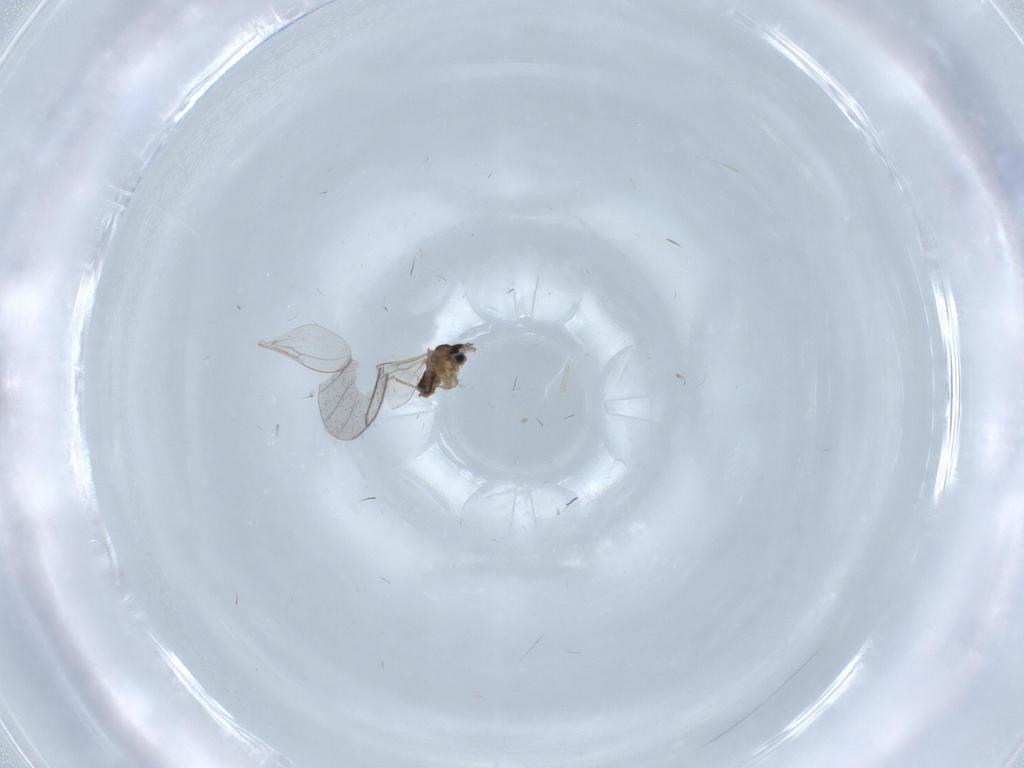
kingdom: Animalia
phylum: Arthropoda
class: Insecta
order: Diptera
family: Cecidomyiidae
